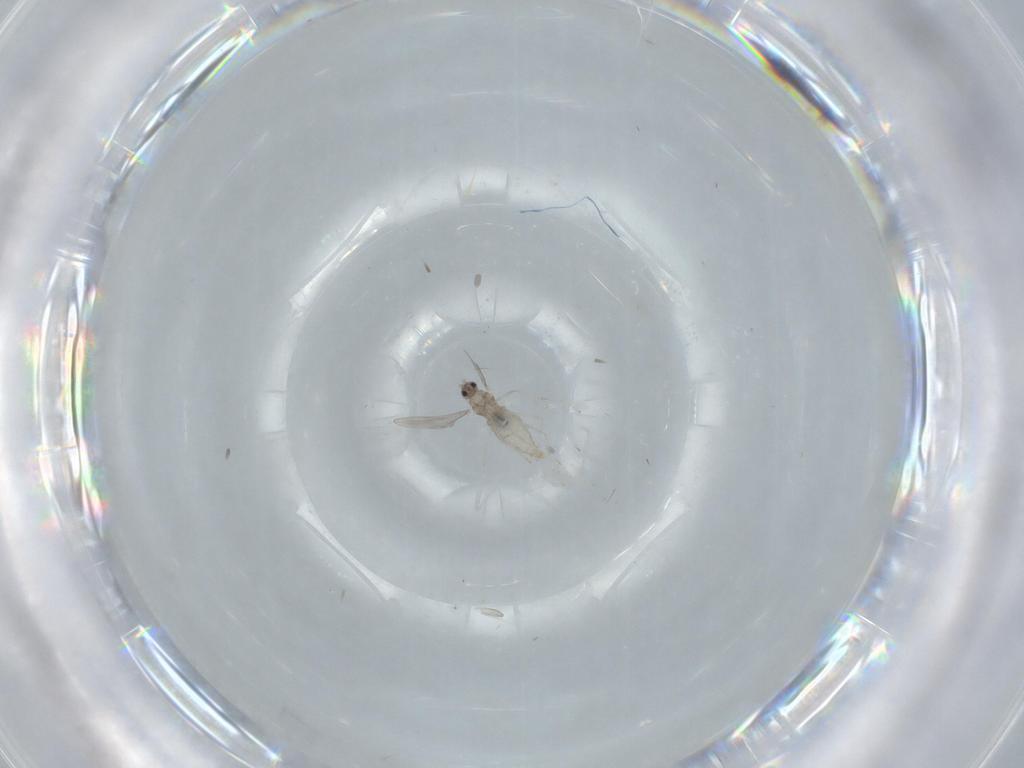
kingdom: Animalia
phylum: Arthropoda
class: Insecta
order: Diptera
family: Cecidomyiidae
